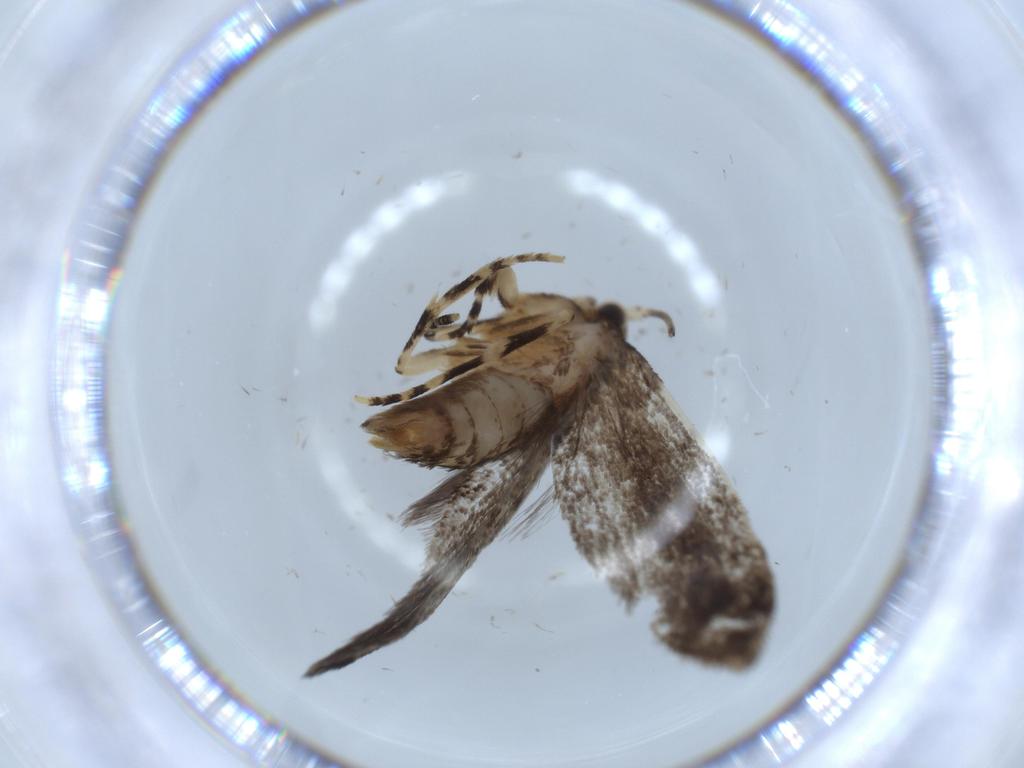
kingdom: Animalia
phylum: Arthropoda
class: Insecta
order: Lepidoptera
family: Tineidae
